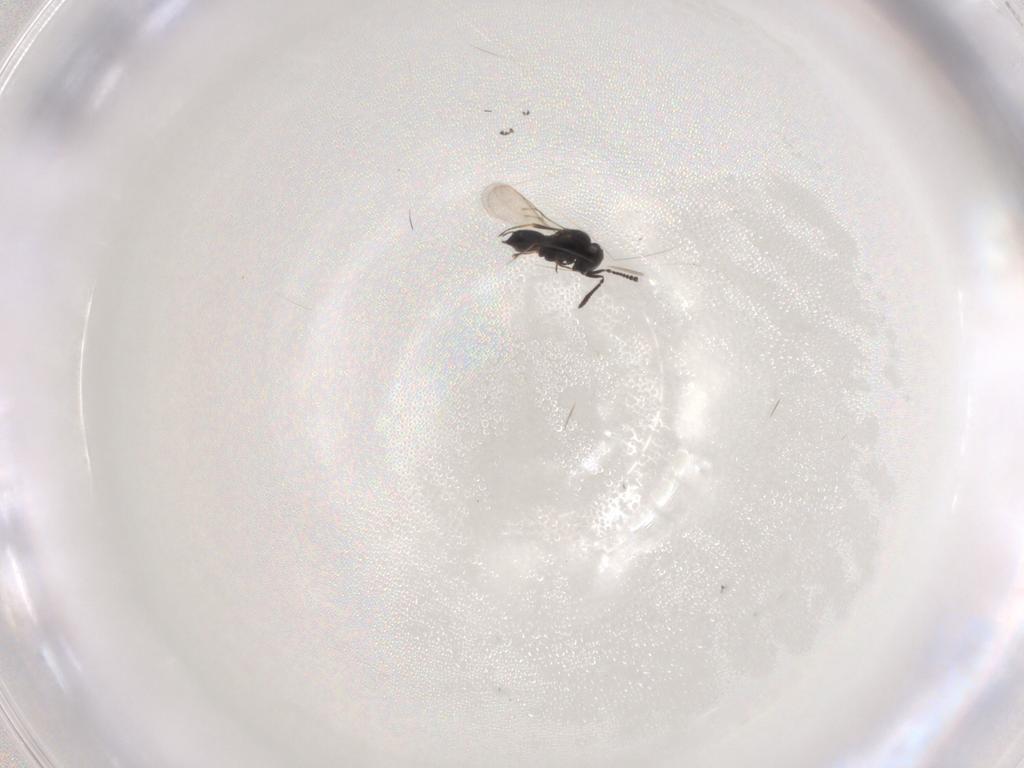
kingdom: Animalia
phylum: Arthropoda
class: Insecta
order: Hymenoptera
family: Scelionidae
